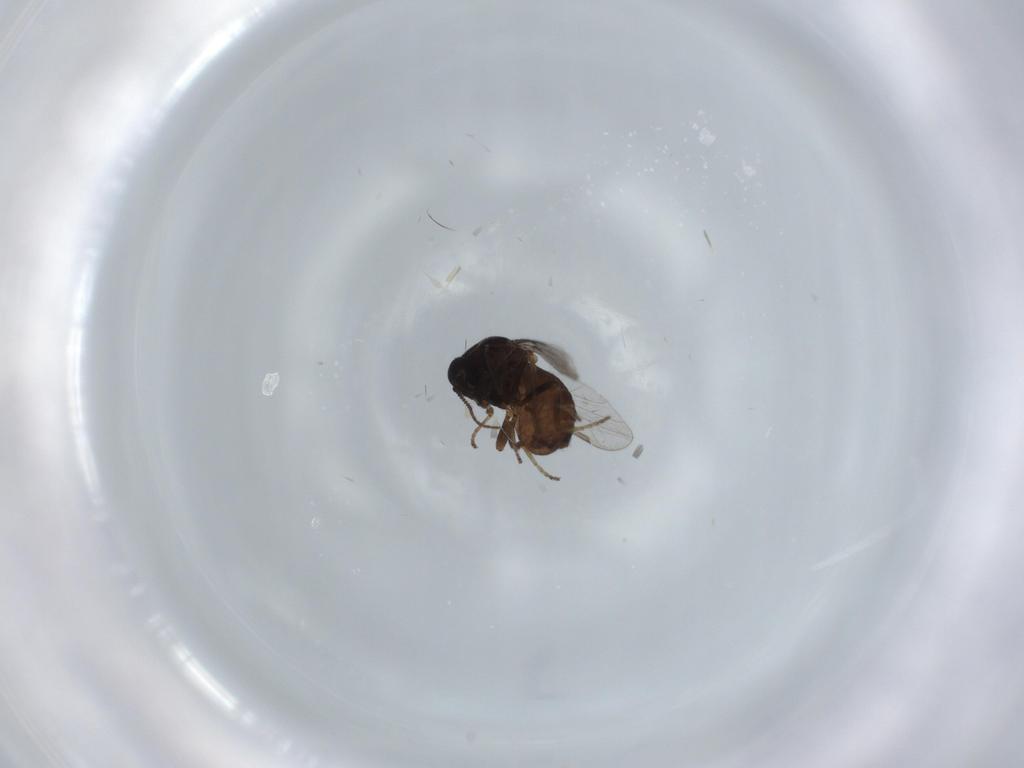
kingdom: Animalia
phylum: Arthropoda
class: Insecta
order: Diptera
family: Ceratopogonidae
